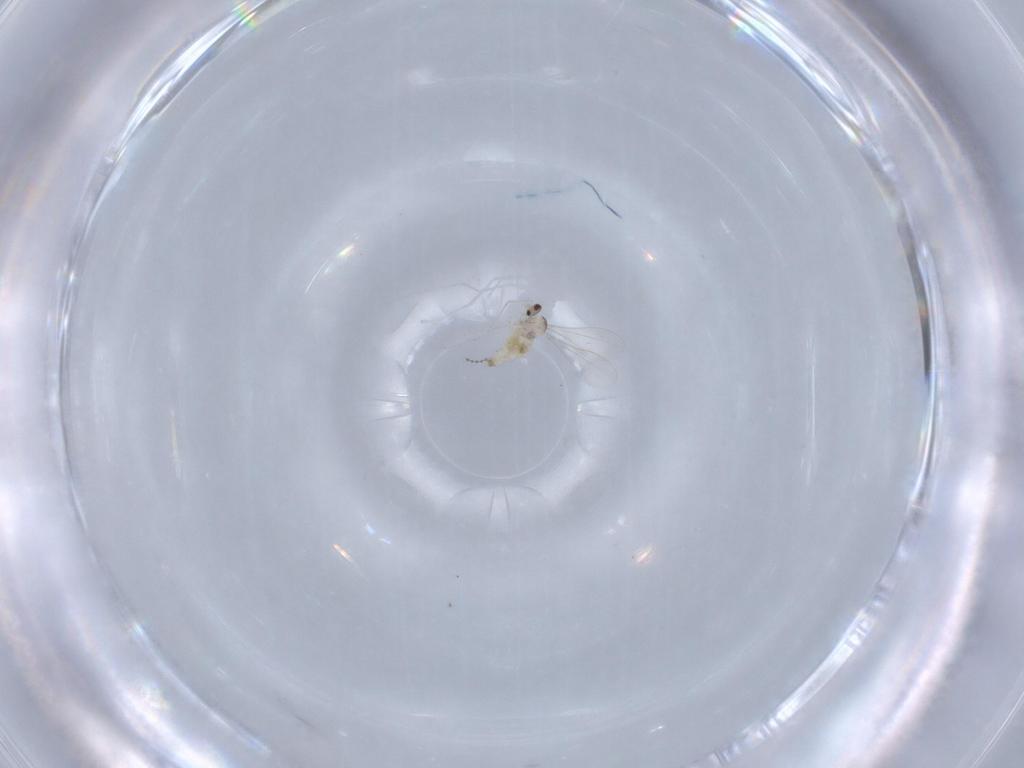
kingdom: Animalia
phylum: Arthropoda
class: Insecta
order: Diptera
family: Cecidomyiidae
